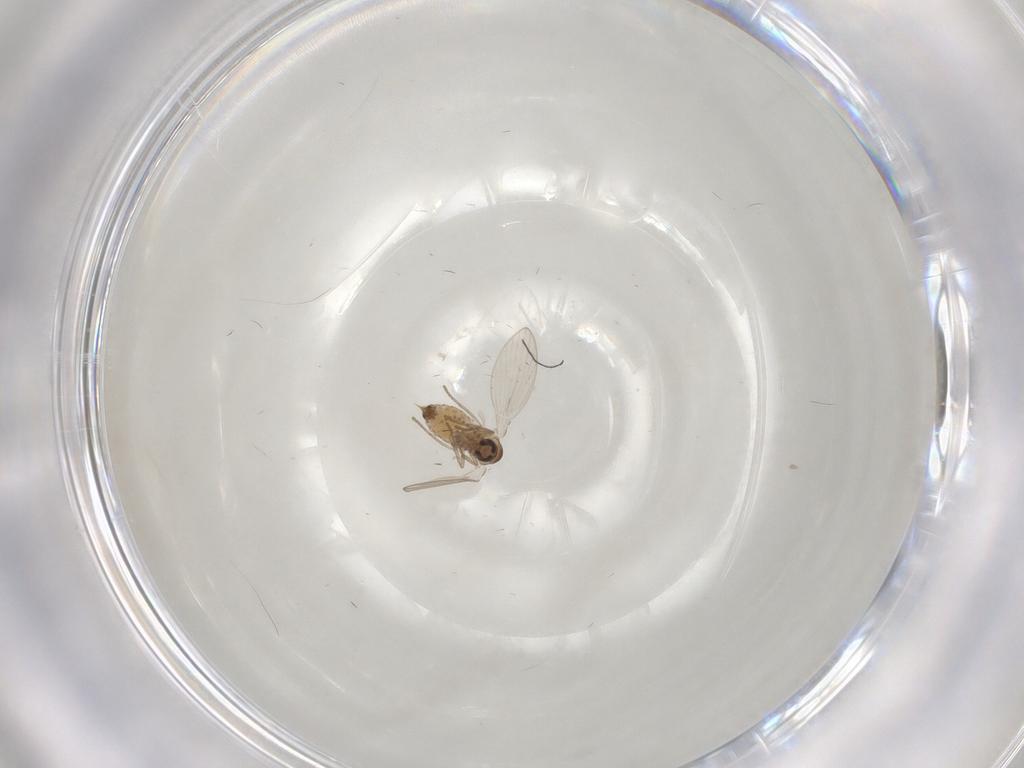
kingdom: Animalia
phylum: Arthropoda
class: Insecta
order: Diptera
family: Psychodidae
